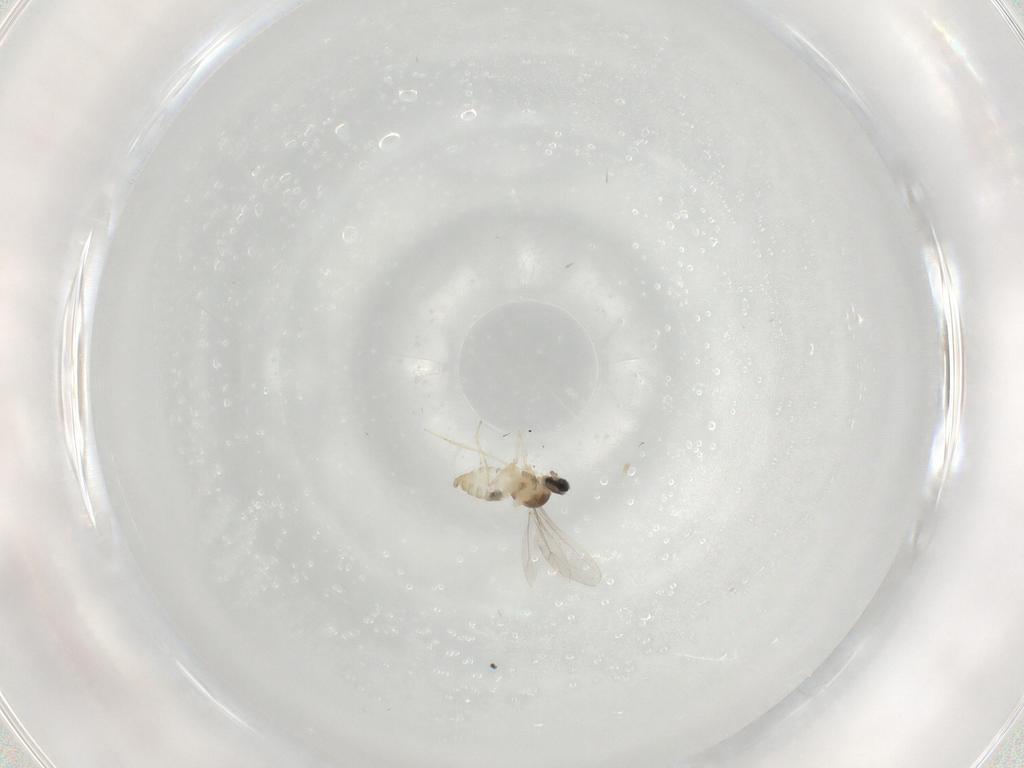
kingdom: Animalia
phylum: Arthropoda
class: Insecta
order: Diptera
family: Cecidomyiidae
